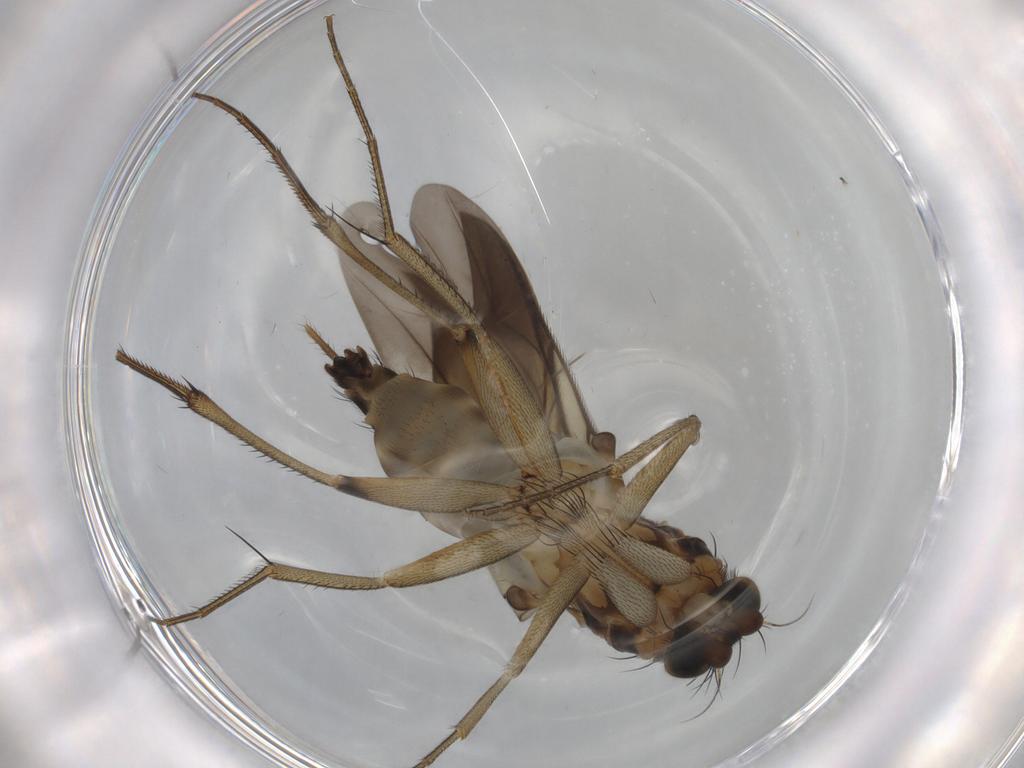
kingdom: Animalia
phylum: Arthropoda
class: Insecta
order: Diptera
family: Phoridae
